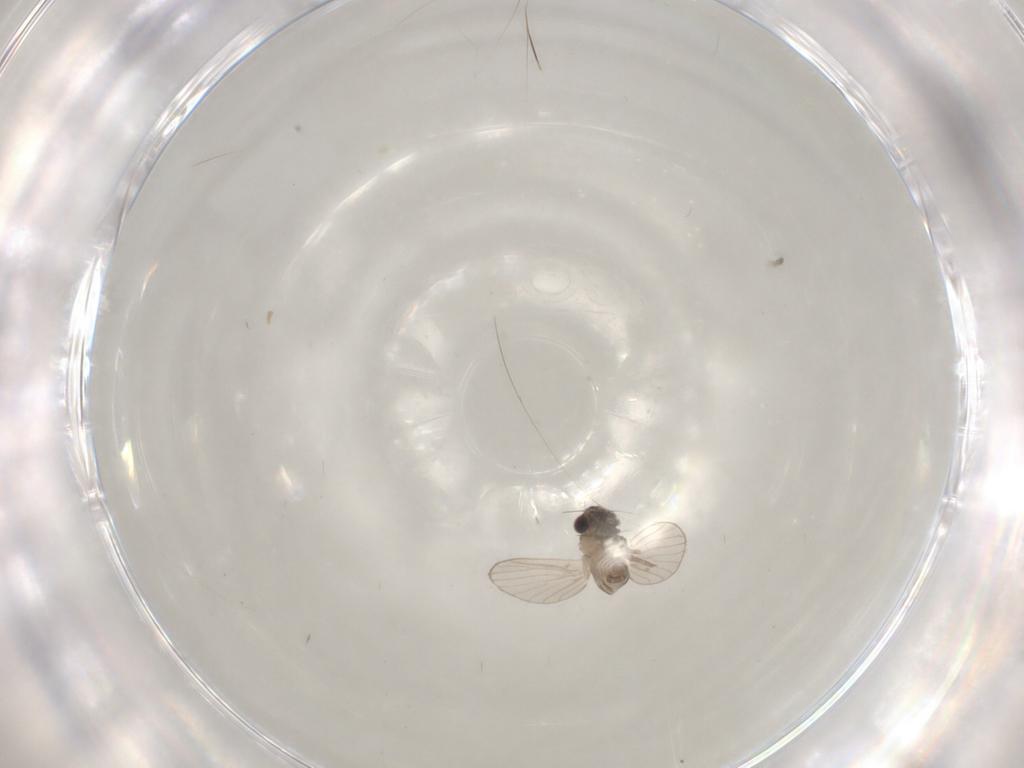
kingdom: Animalia
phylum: Arthropoda
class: Insecta
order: Diptera
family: Psychodidae
